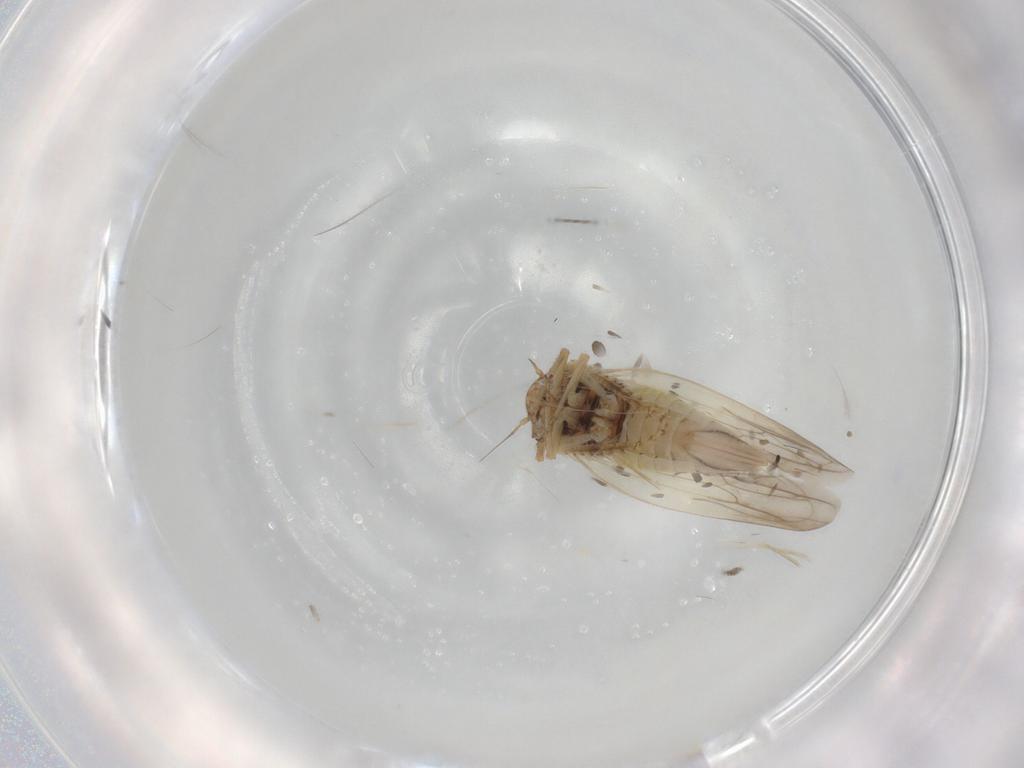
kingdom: Animalia
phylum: Arthropoda
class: Insecta
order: Hemiptera
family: Cicadellidae
